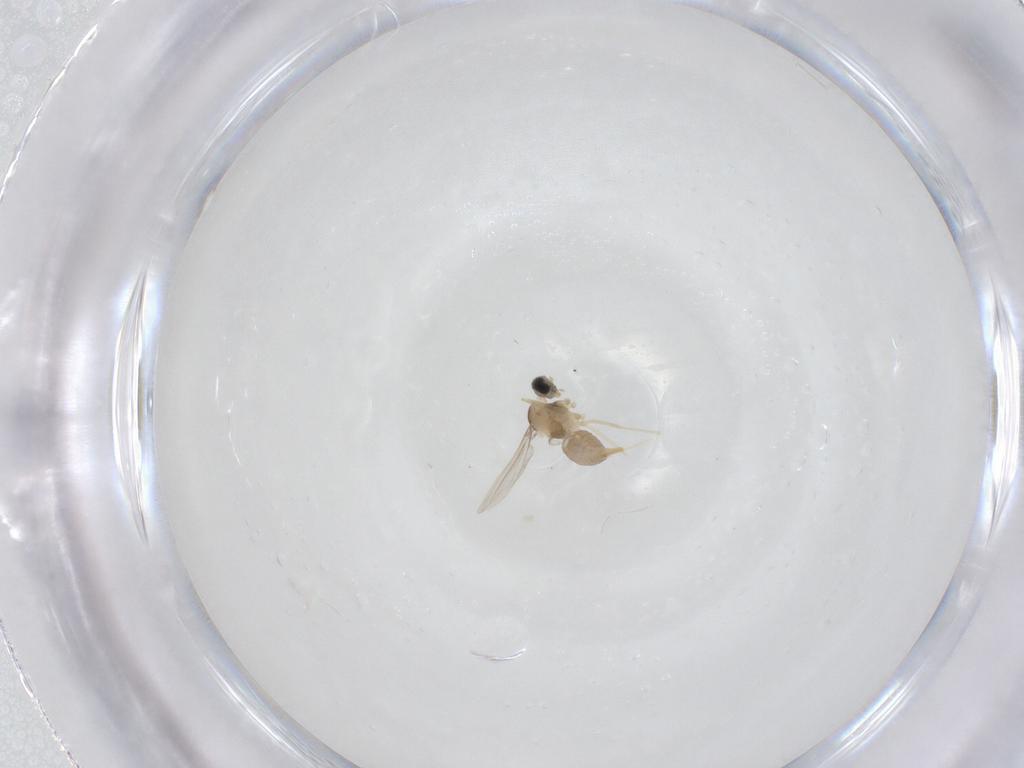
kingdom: Animalia
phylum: Arthropoda
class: Insecta
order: Diptera
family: Cecidomyiidae
